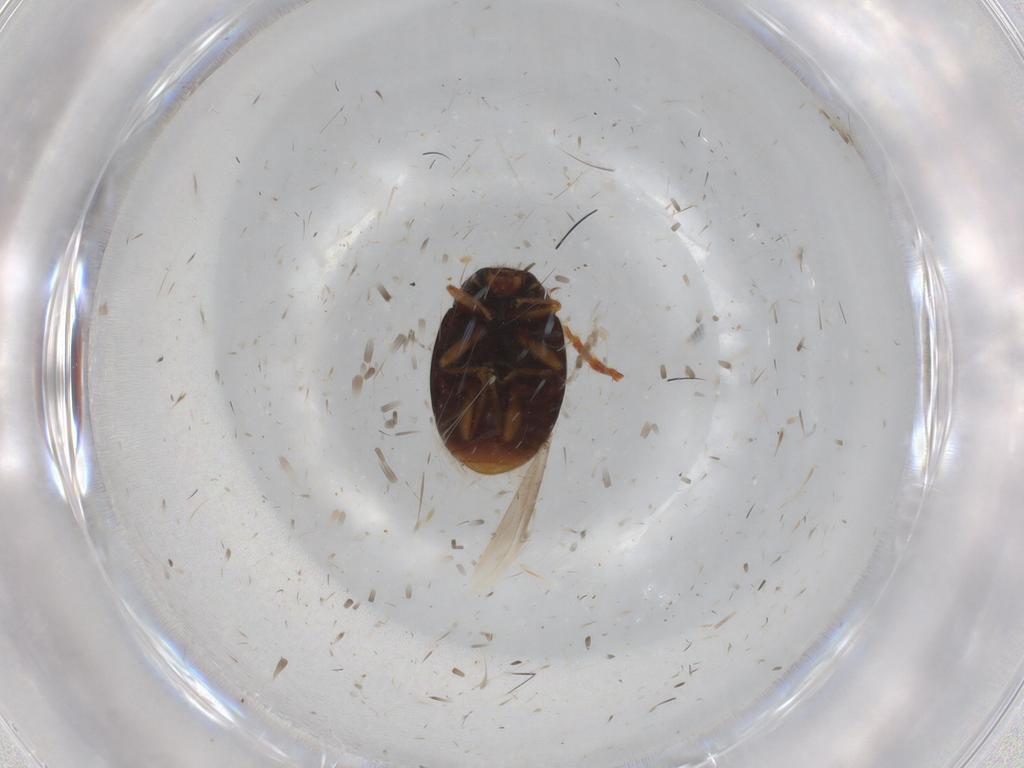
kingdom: Animalia
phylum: Arthropoda
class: Insecta
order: Coleoptera
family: Coccinellidae
